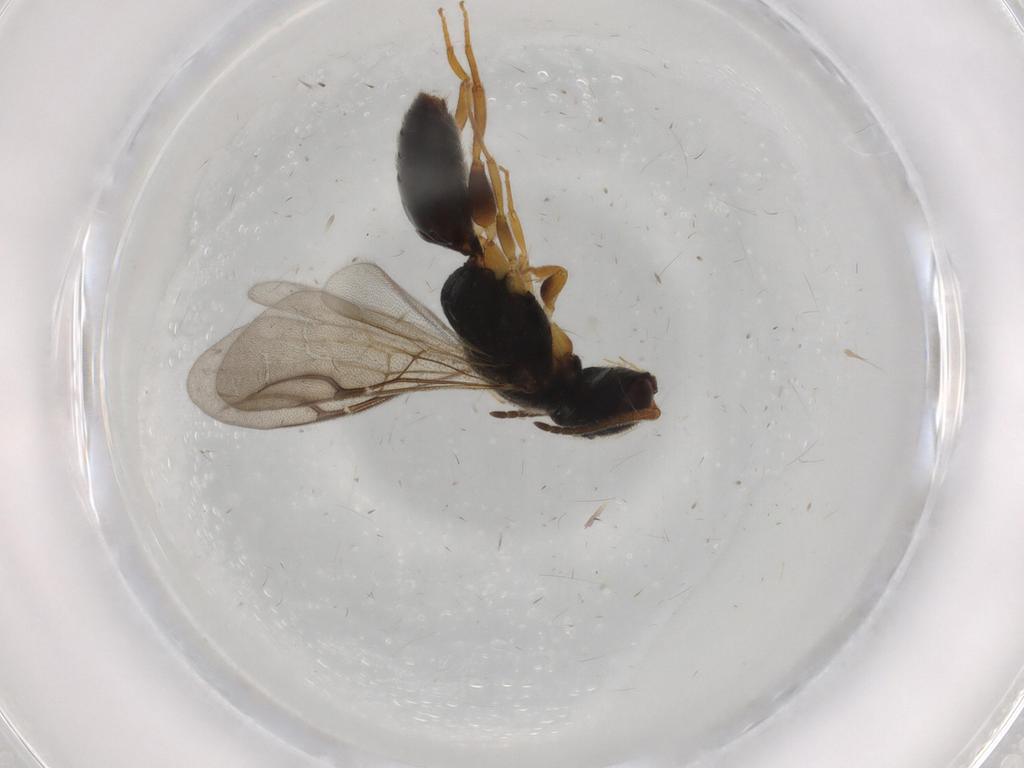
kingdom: Animalia
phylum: Arthropoda
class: Insecta
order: Hymenoptera
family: Bethylidae
